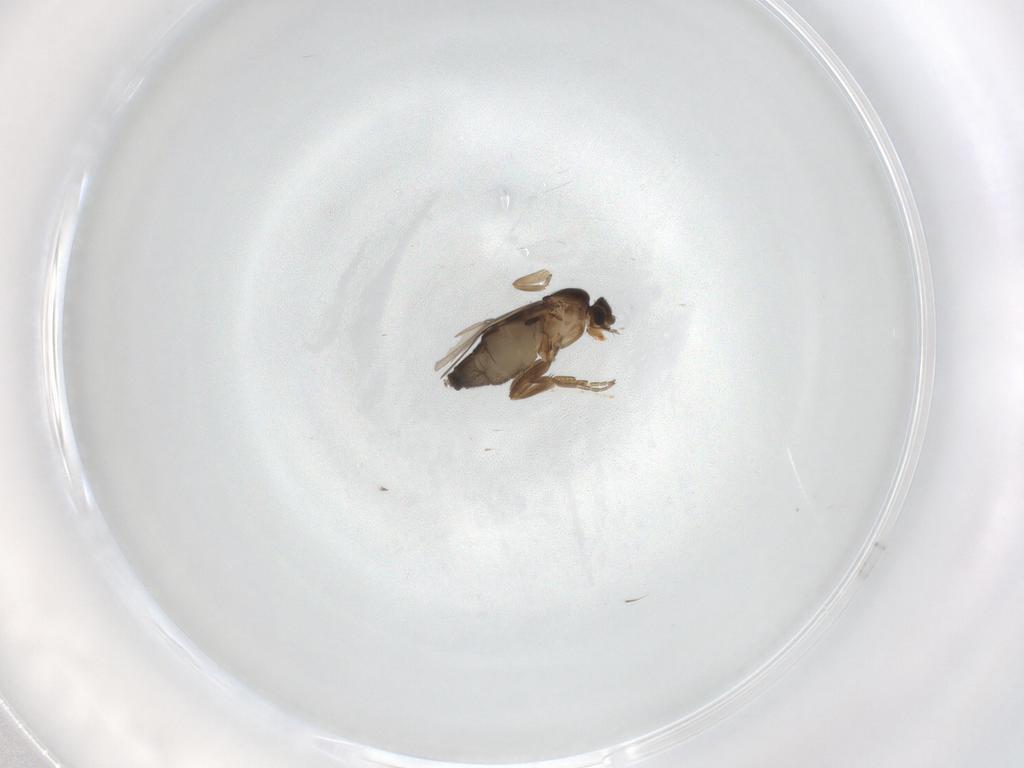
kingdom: Animalia
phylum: Arthropoda
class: Insecta
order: Diptera
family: Phoridae
